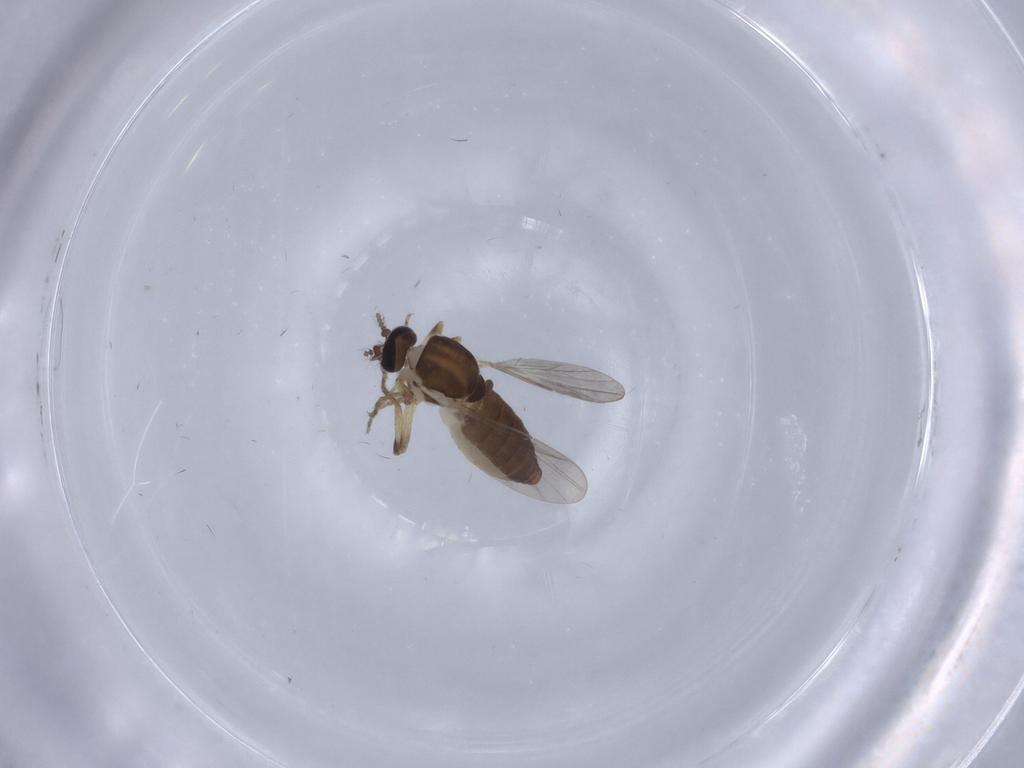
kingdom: Animalia
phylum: Arthropoda
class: Insecta
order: Diptera
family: Ceratopogonidae
